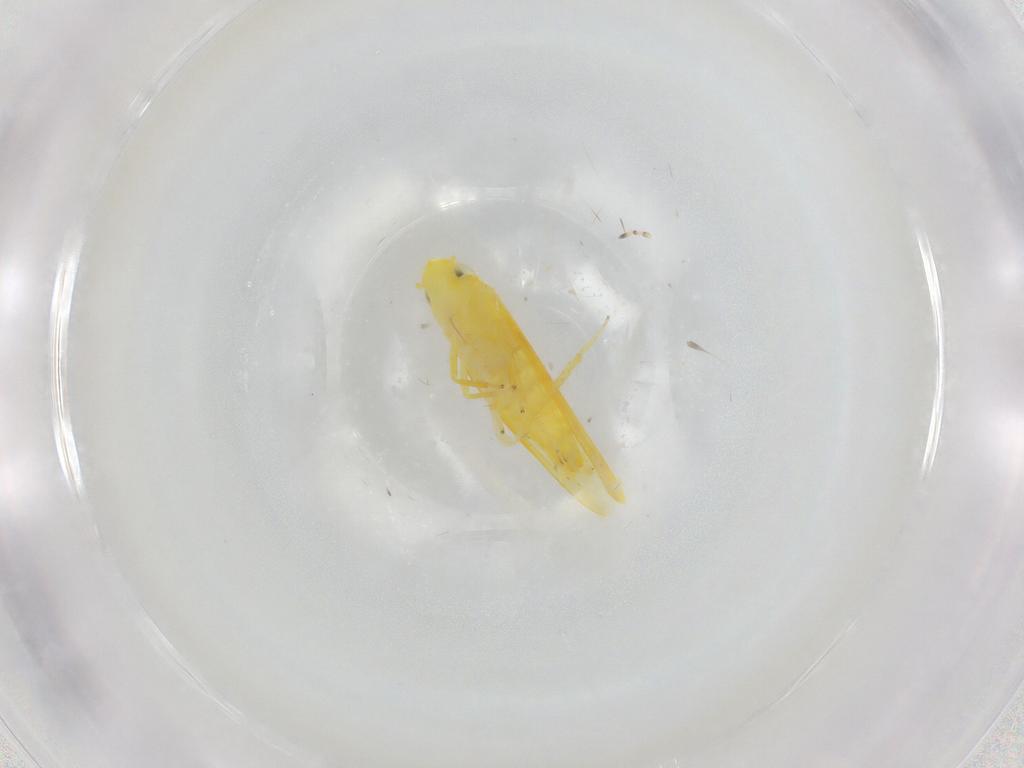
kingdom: Animalia
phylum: Arthropoda
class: Insecta
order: Hemiptera
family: Cicadellidae
